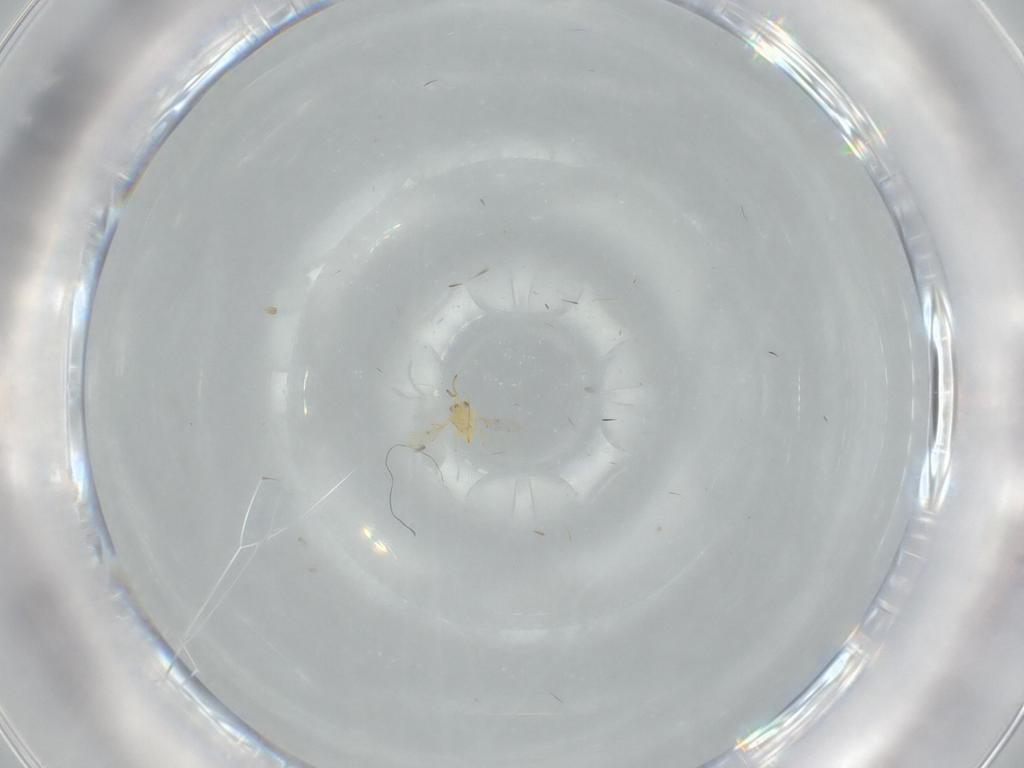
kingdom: Animalia
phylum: Arthropoda
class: Insecta
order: Hymenoptera
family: Aphelinidae
